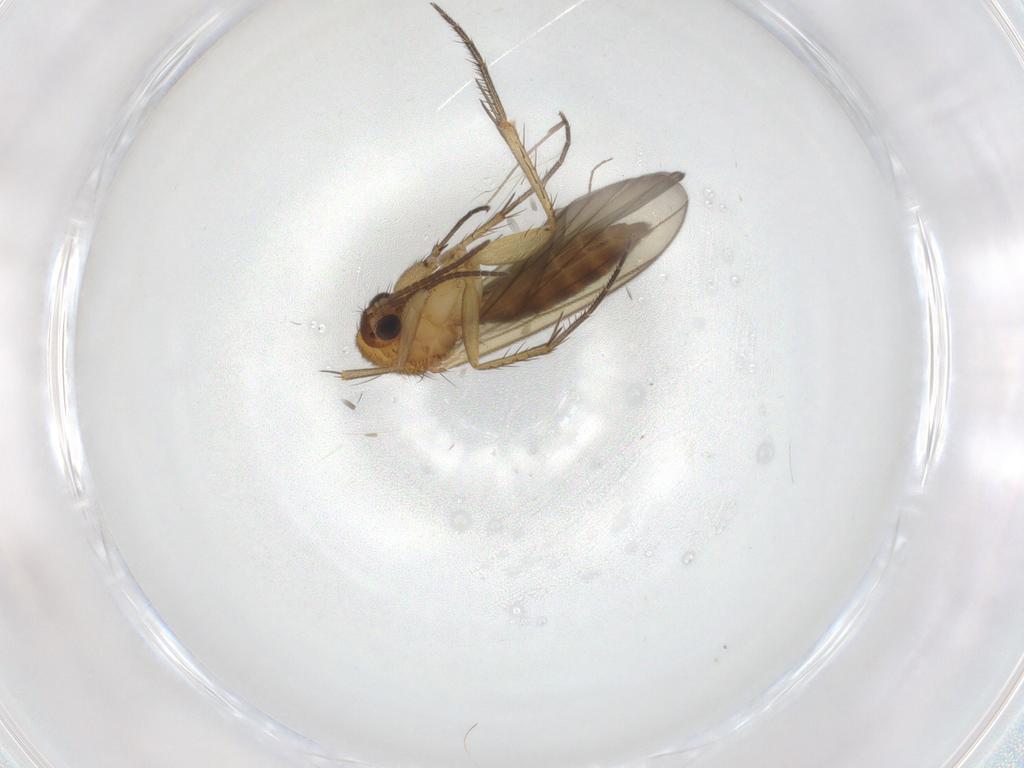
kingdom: Animalia
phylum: Arthropoda
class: Insecta
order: Diptera
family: Mycetophilidae
